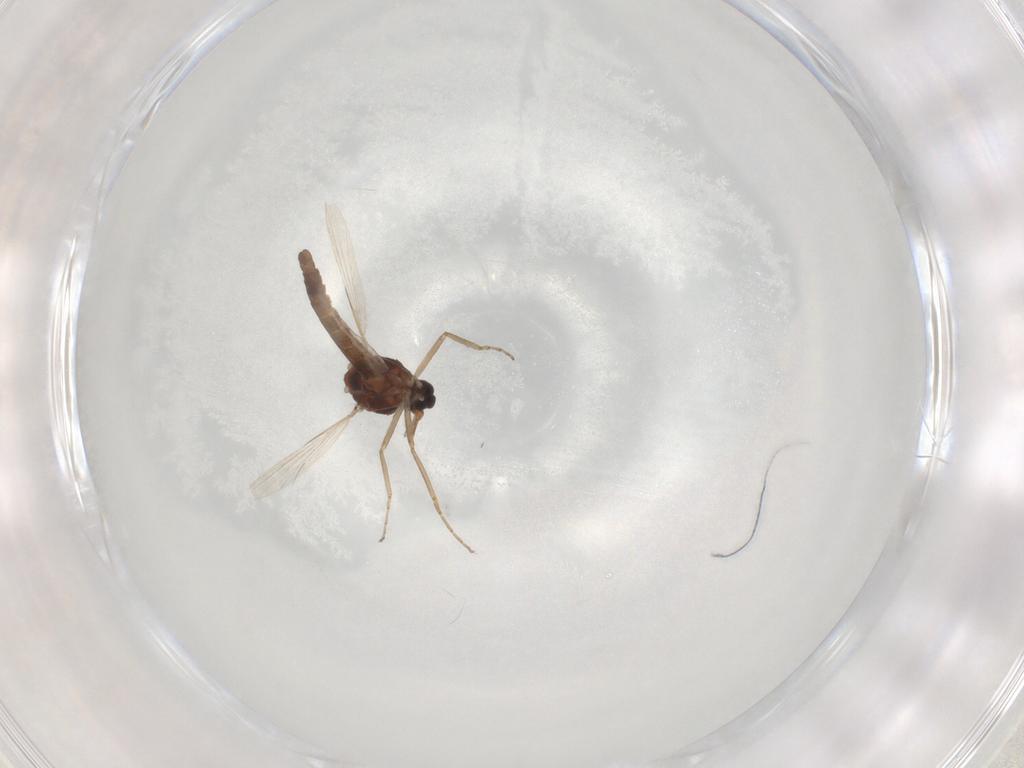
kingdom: Animalia
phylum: Arthropoda
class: Insecta
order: Diptera
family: Ceratopogonidae
